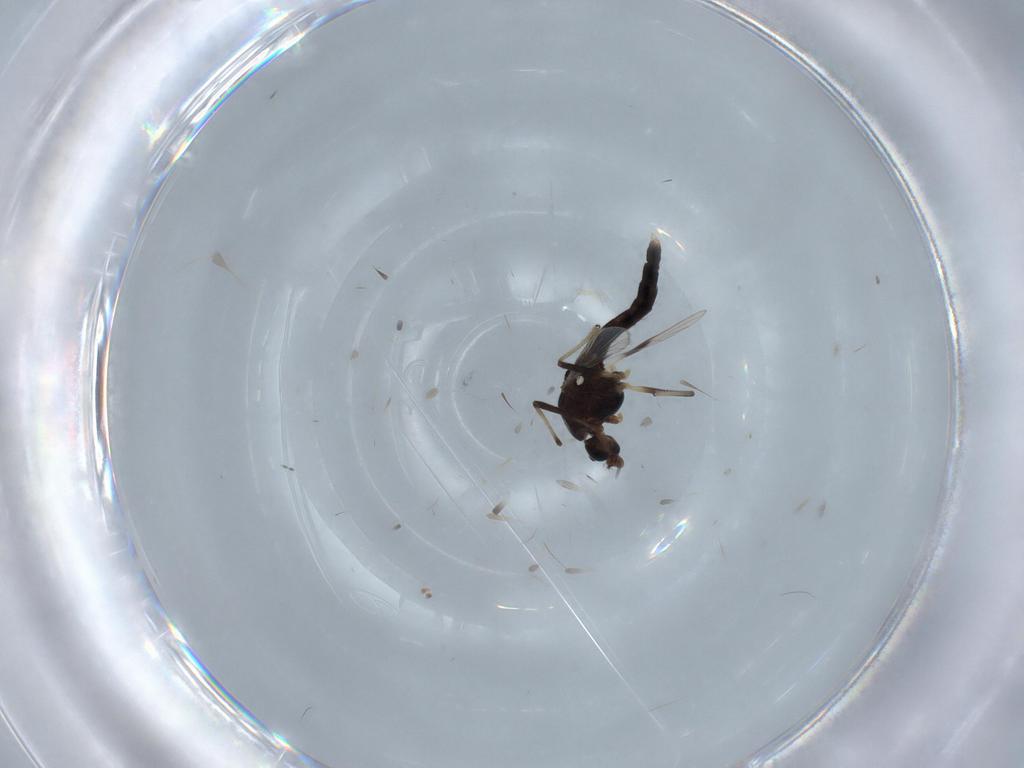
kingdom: Animalia
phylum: Arthropoda
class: Insecta
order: Diptera
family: Chironomidae
